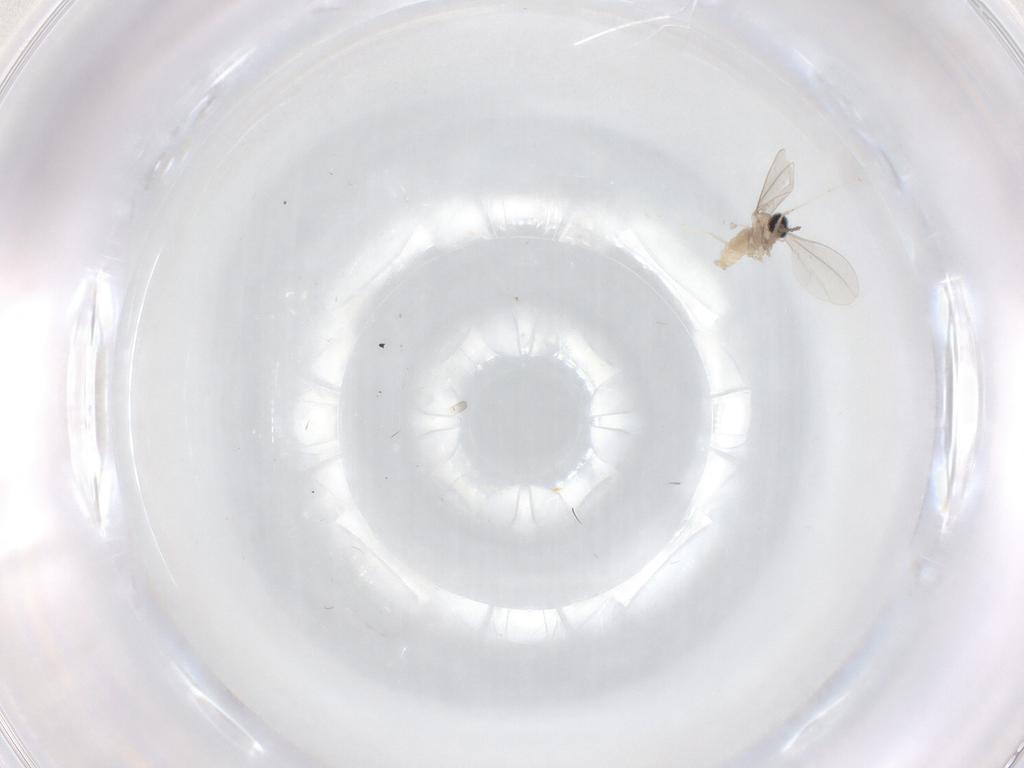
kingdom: Animalia
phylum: Arthropoda
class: Insecta
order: Diptera
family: Cecidomyiidae
